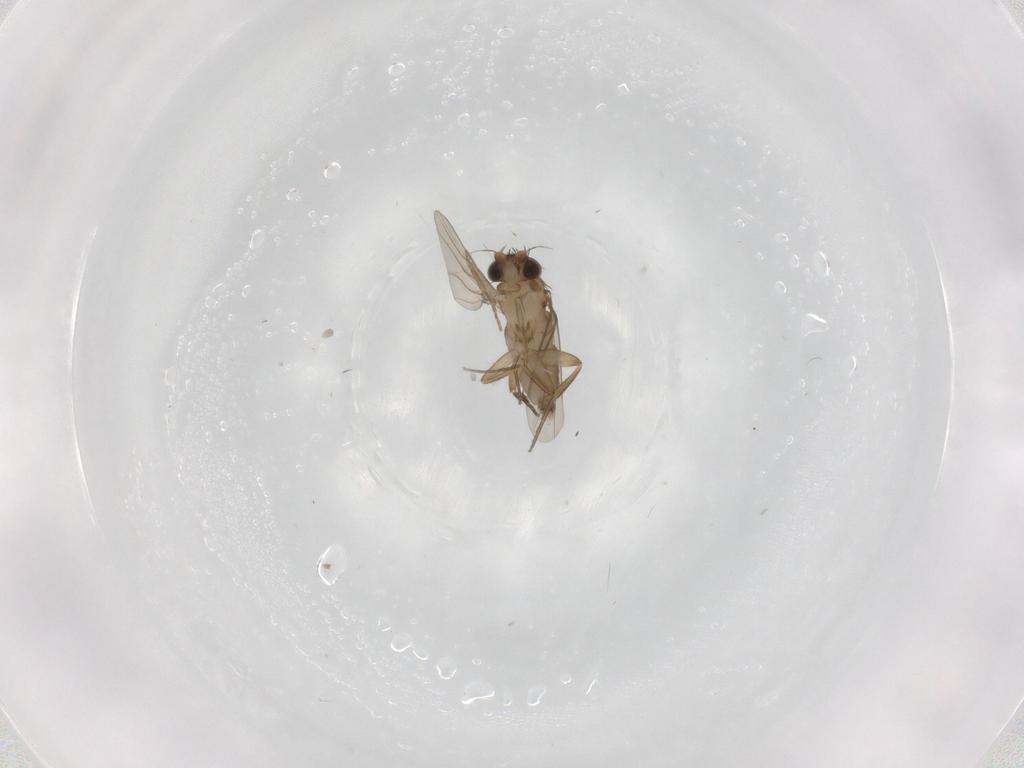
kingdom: Animalia
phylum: Arthropoda
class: Insecta
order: Diptera
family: Phoridae
